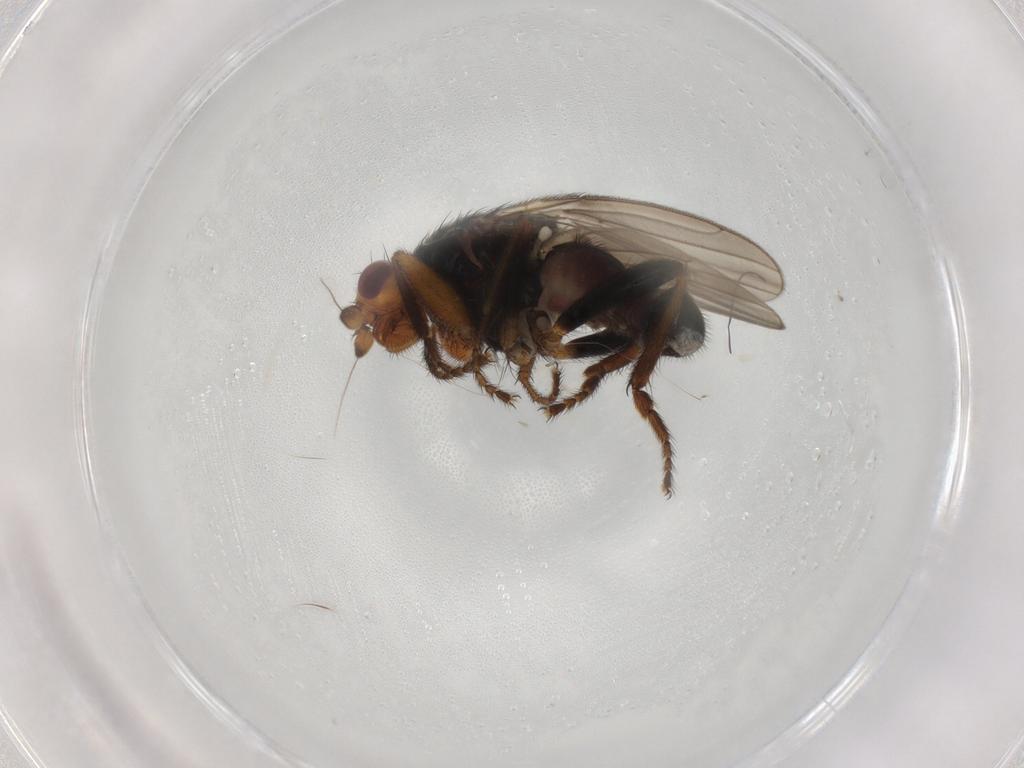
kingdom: Animalia
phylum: Arthropoda
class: Insecta
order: Diptera
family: Sphaeroceridae
